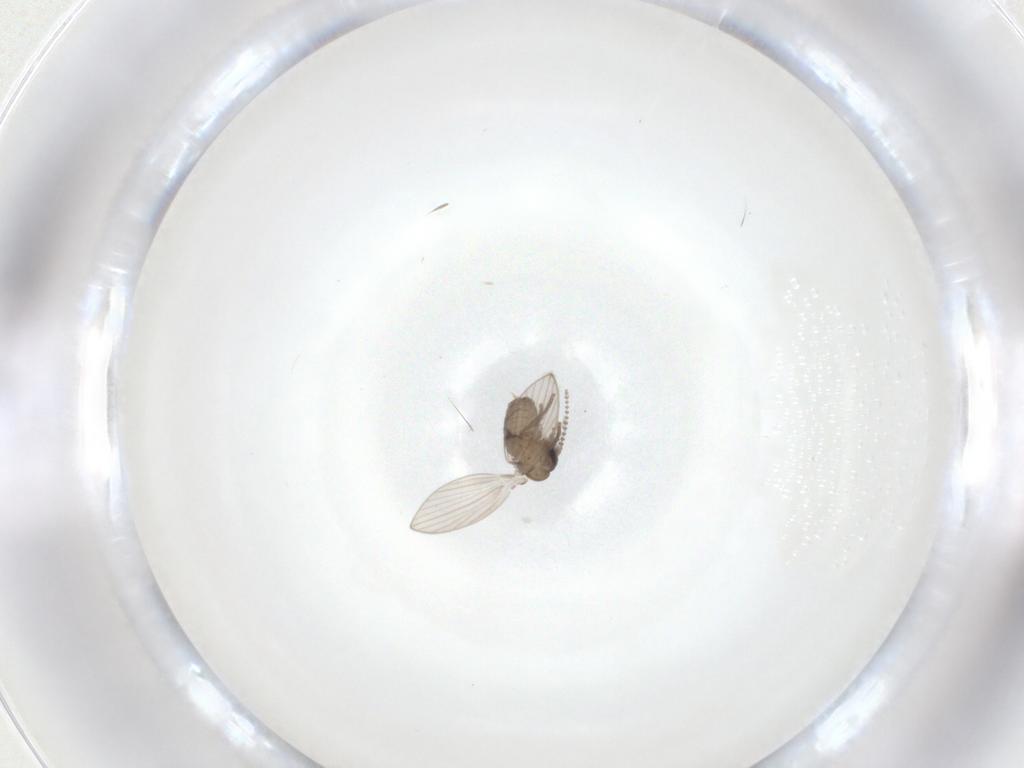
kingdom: Animalia
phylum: Arthropoda
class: Insecta
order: Diptera
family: Psychodidae
